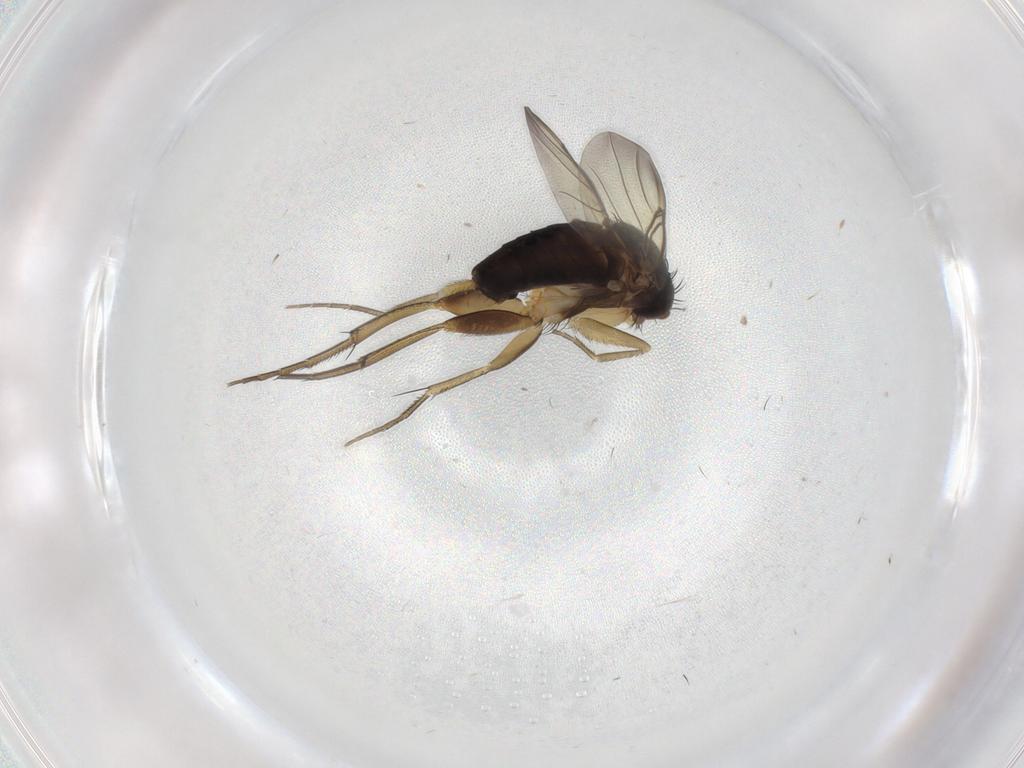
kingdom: Animalia
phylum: Arthropoda
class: Insecta
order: Diptera
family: Phoridae
